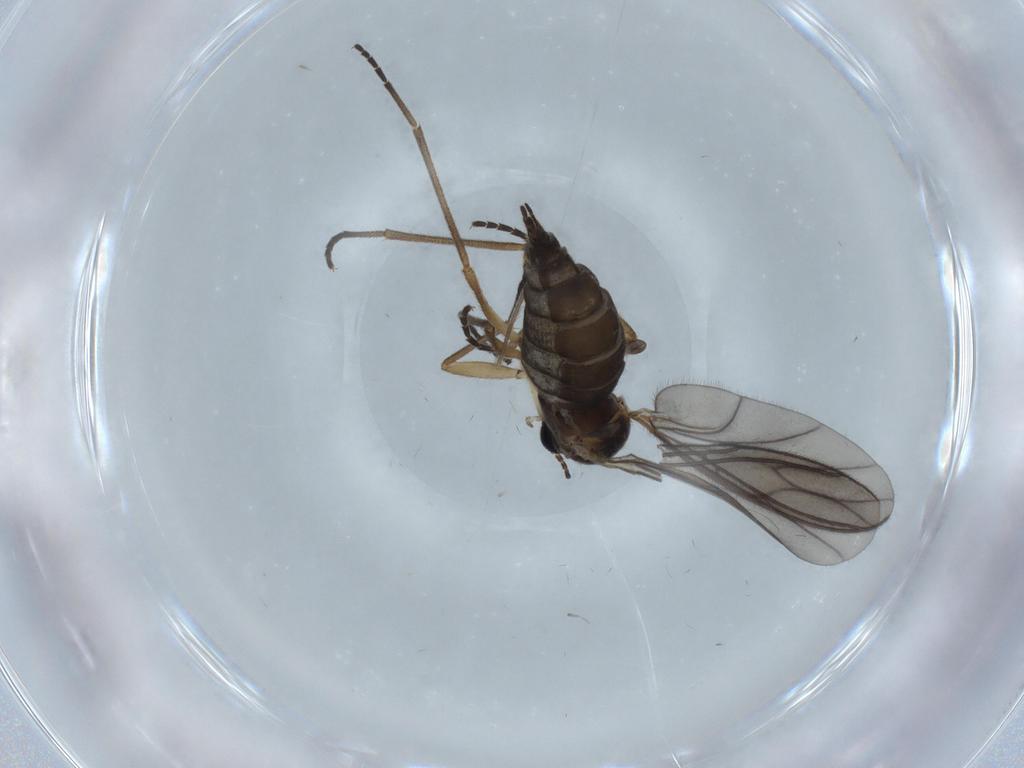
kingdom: Animalia
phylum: Arthropoda
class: Insecta
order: Diptera
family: Sciaridae
